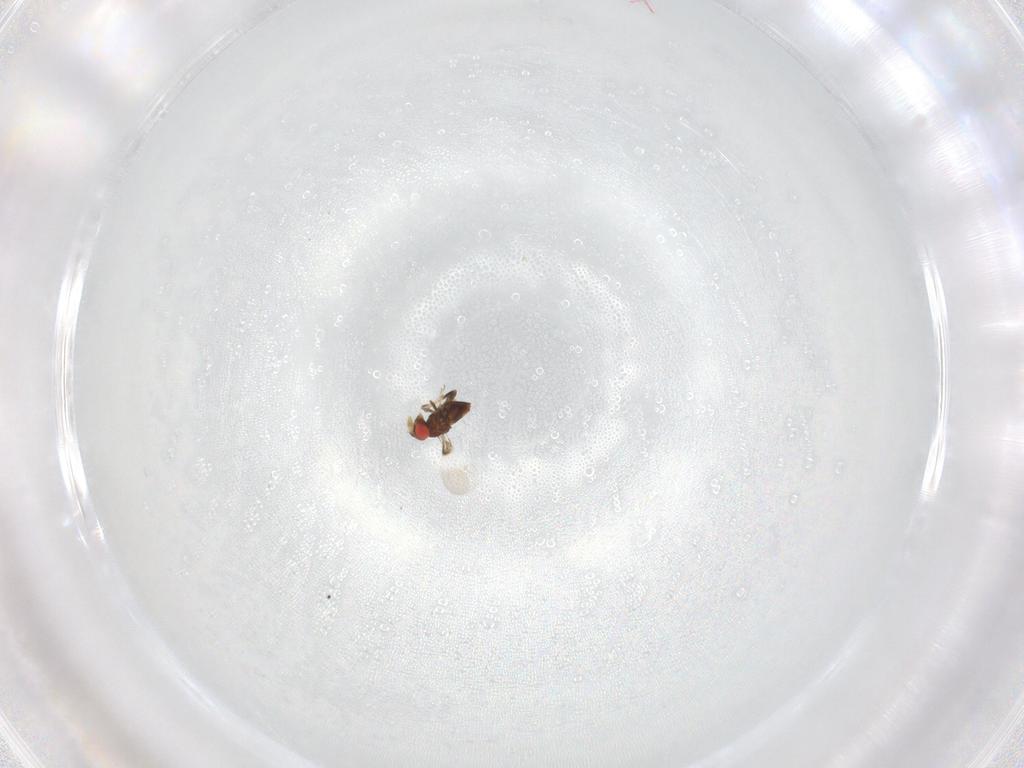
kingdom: Animalia
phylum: Arthropoda
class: Insecta
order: Hymenoptera
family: Trichogrammatidae
